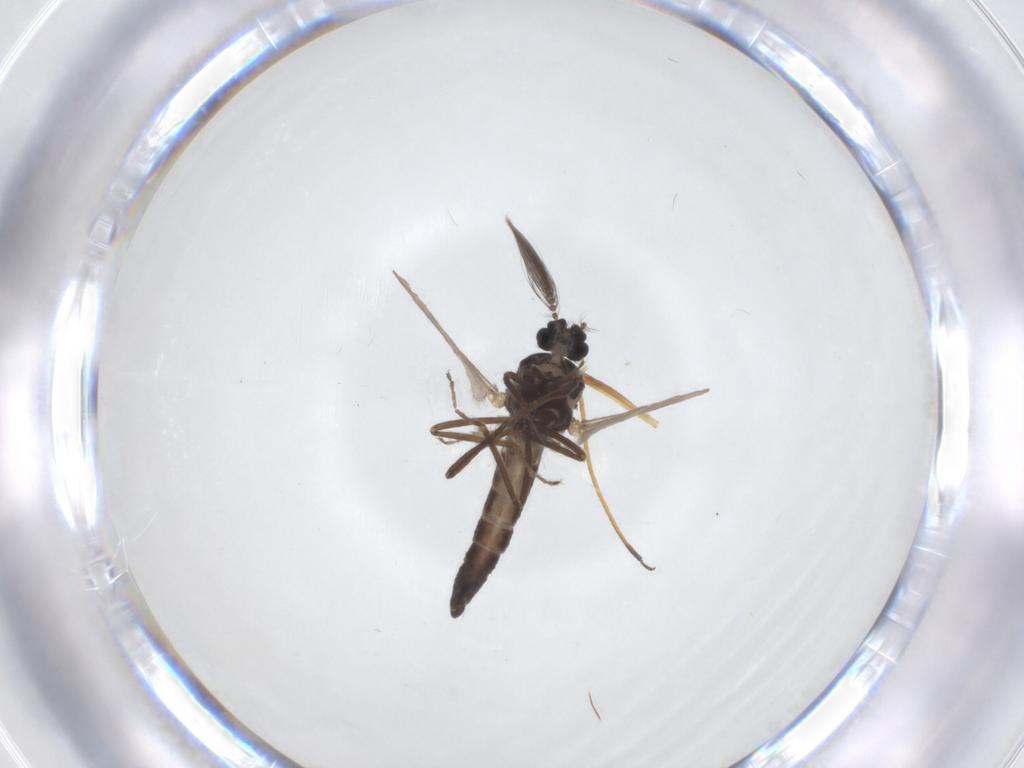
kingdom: Animalia
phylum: Arthropoda
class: Insecta
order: Diptera
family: Ceratopogonidae
